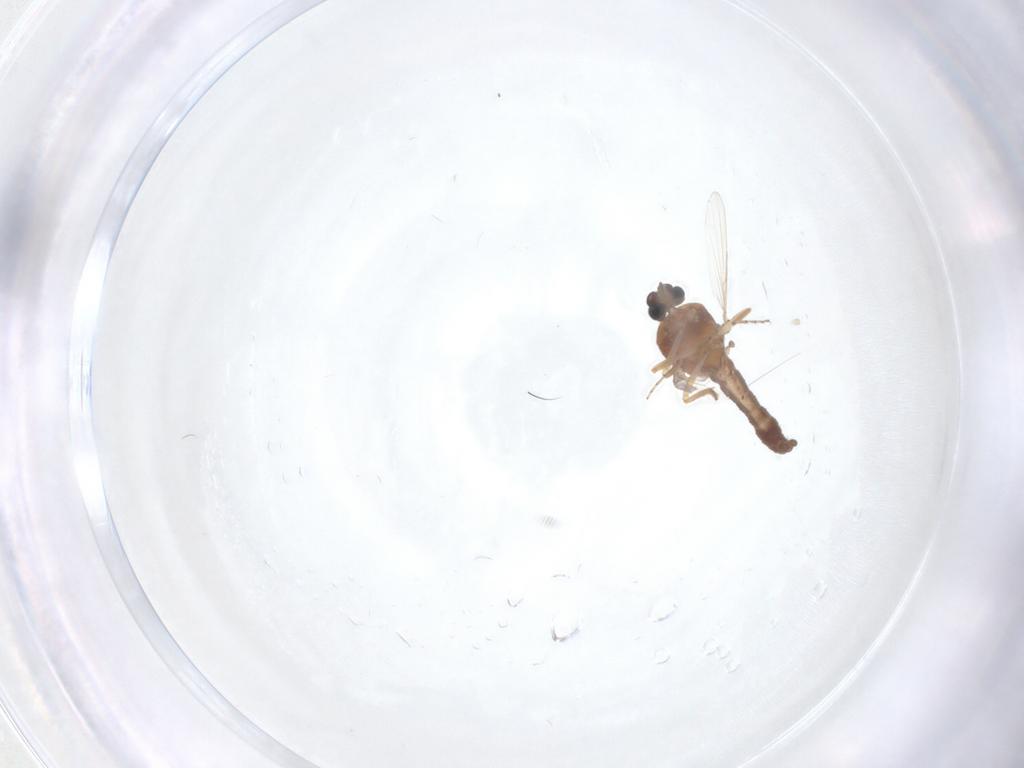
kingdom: Animalia
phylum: Arthropoda
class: Insecta
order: Diptera
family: Ceratopogonidae
